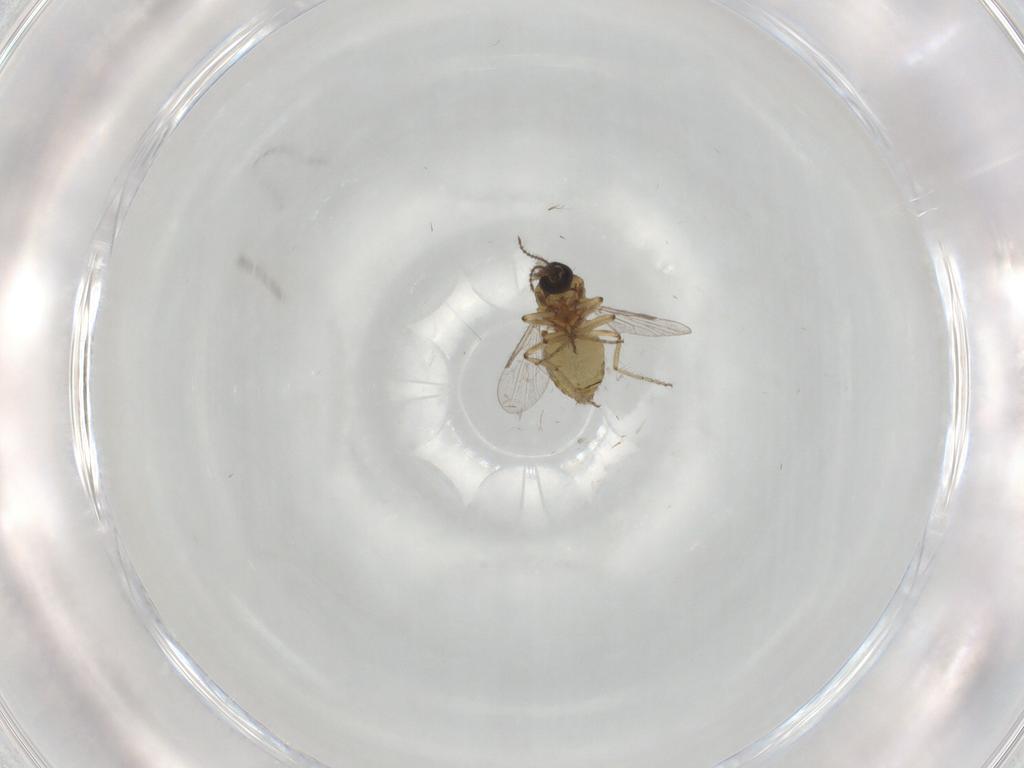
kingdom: Animalia
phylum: Arthropoda
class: Insecta
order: Diptera
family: Ceratopogonidae
